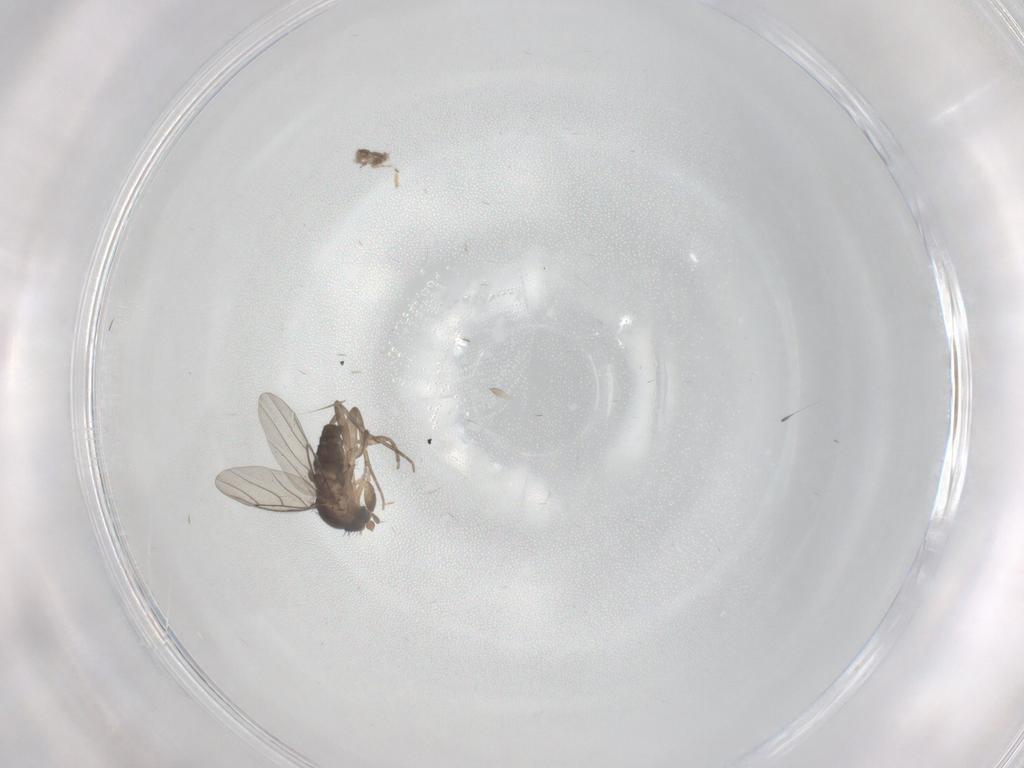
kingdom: Animalia
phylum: Arthropoda
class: Insecta
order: Diptera
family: Phoridae
